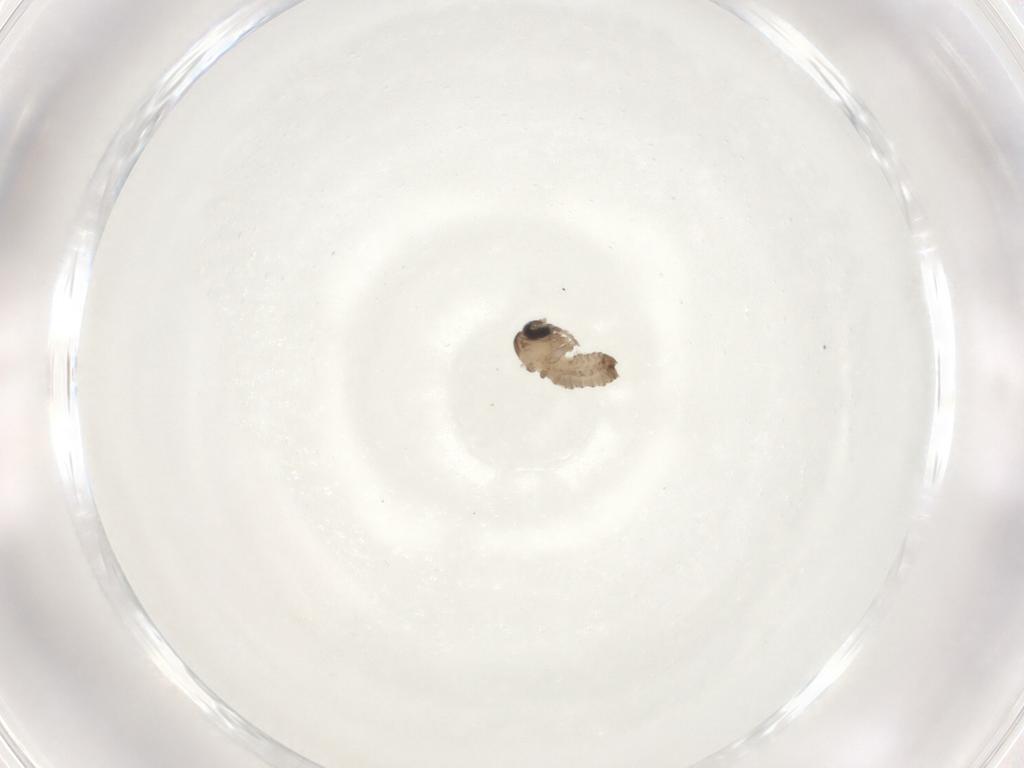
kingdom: Animalia
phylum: Arthropoda
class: Insecta
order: Diptera
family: Psychodidae
